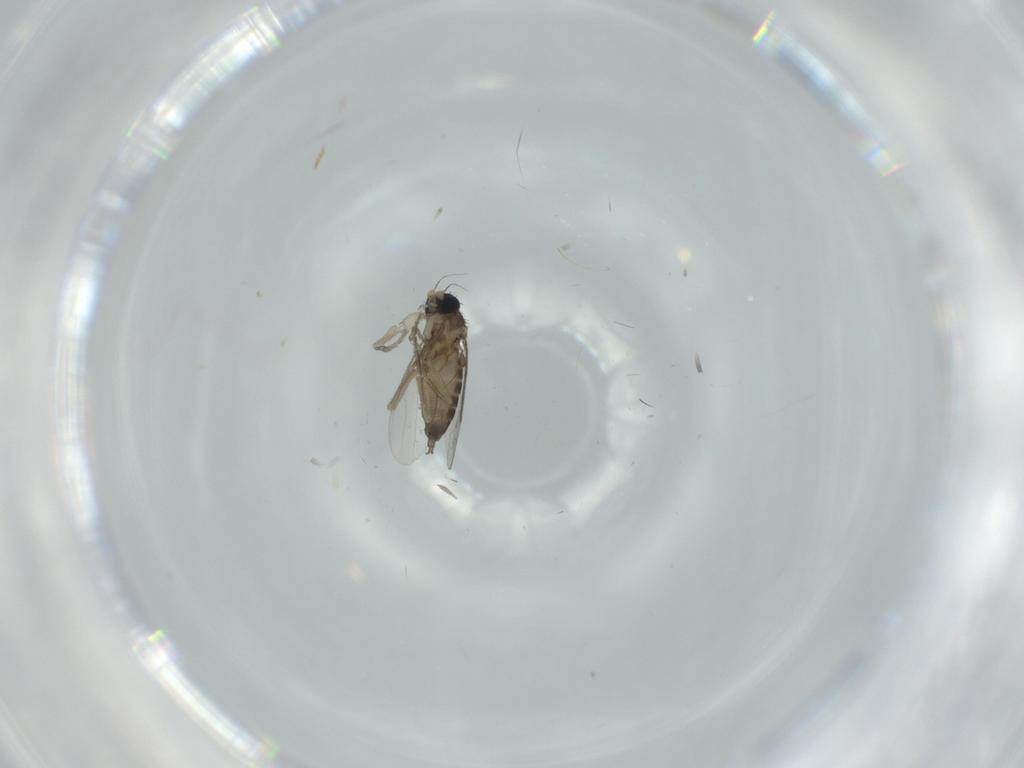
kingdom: Animalia
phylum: Arthropoda
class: Insecta
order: Diptera
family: Phoridae
